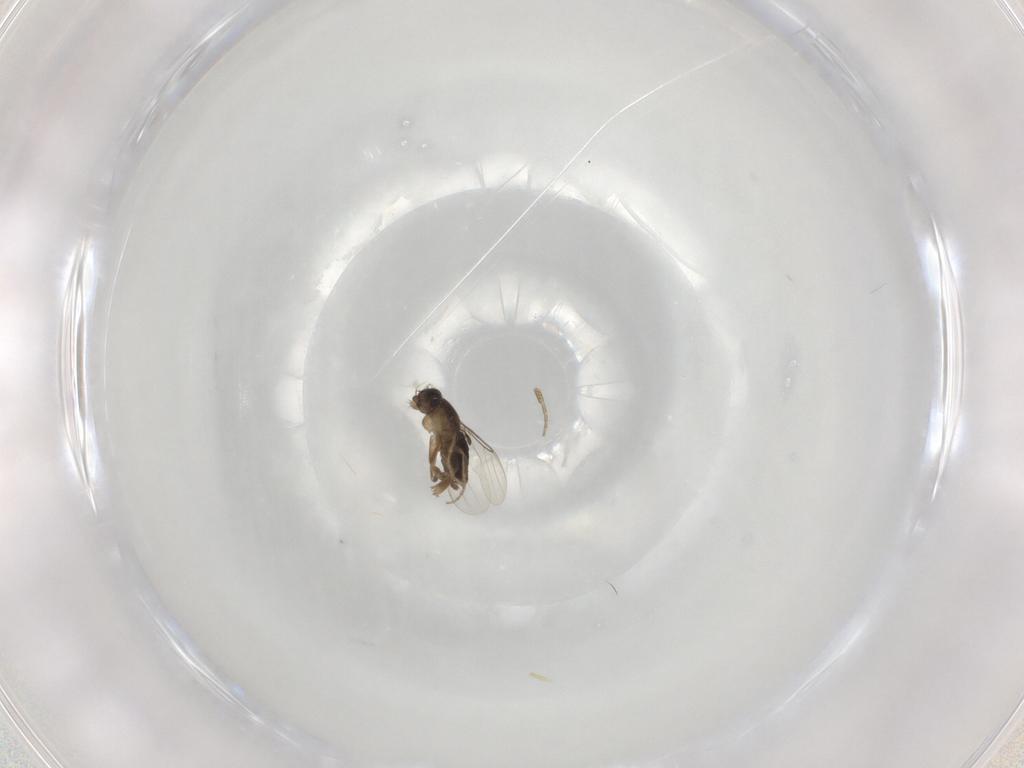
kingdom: Animalia
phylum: Arthropoda
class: Insecta
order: Diptera
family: Phoridae
